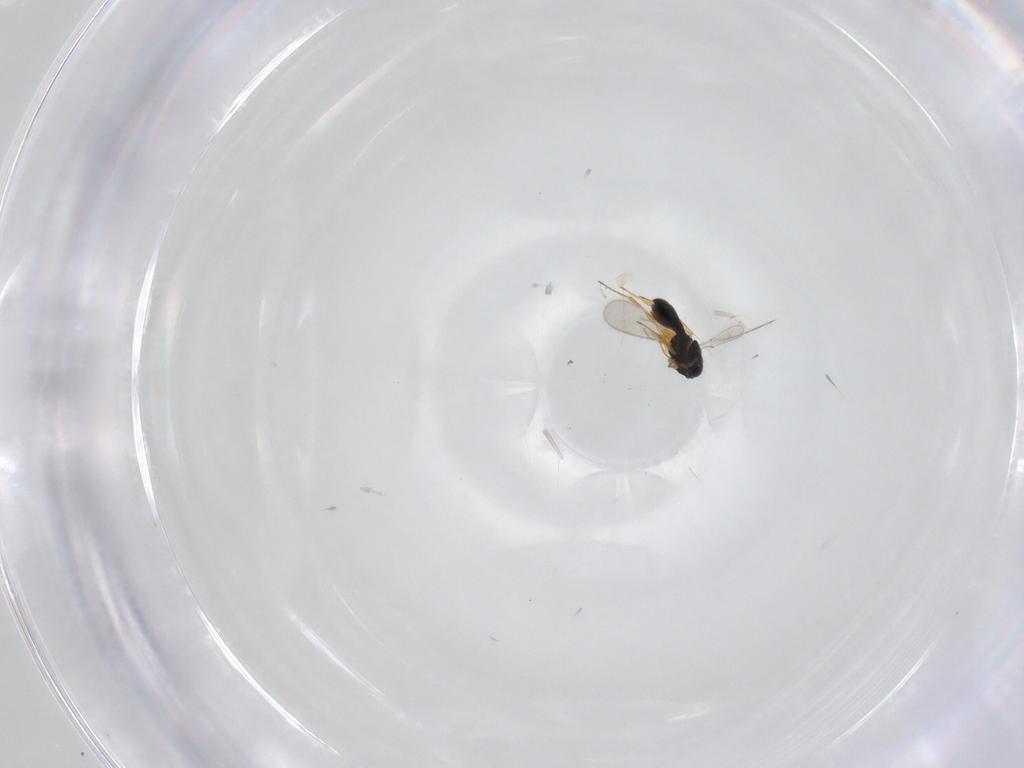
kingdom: Animalia
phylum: Arthropoda
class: Insecta
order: Hymenoptera
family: Scelionidae
